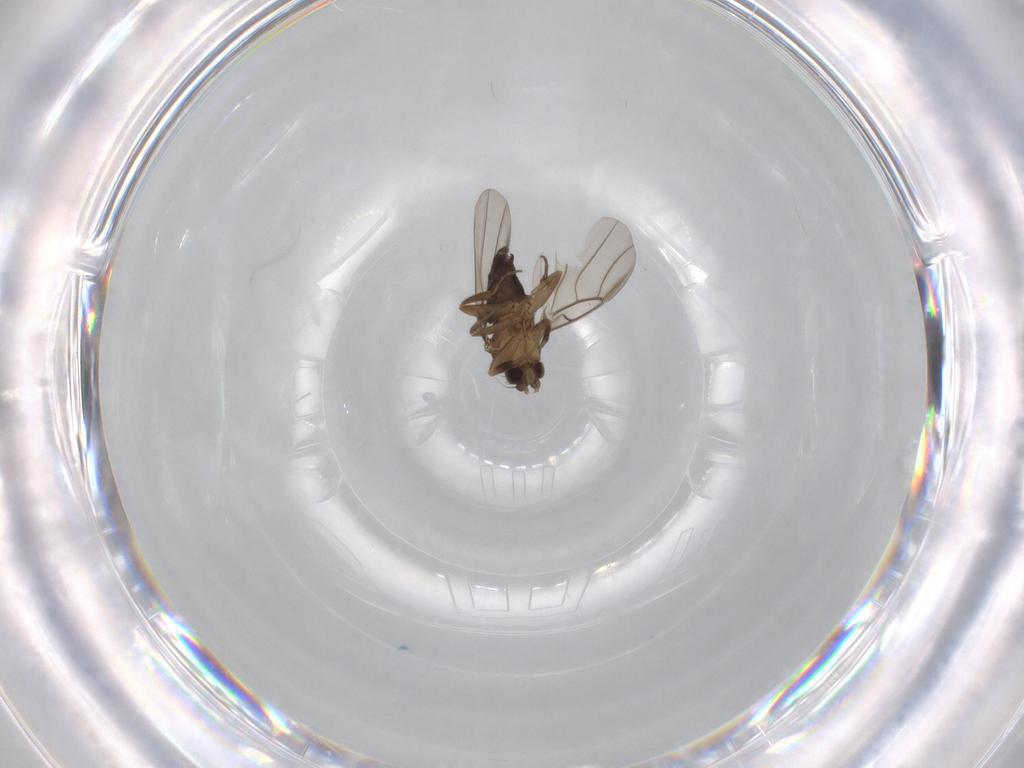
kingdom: Animalia
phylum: Arthropoda
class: Insecta
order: Diptera
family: Phoridae
